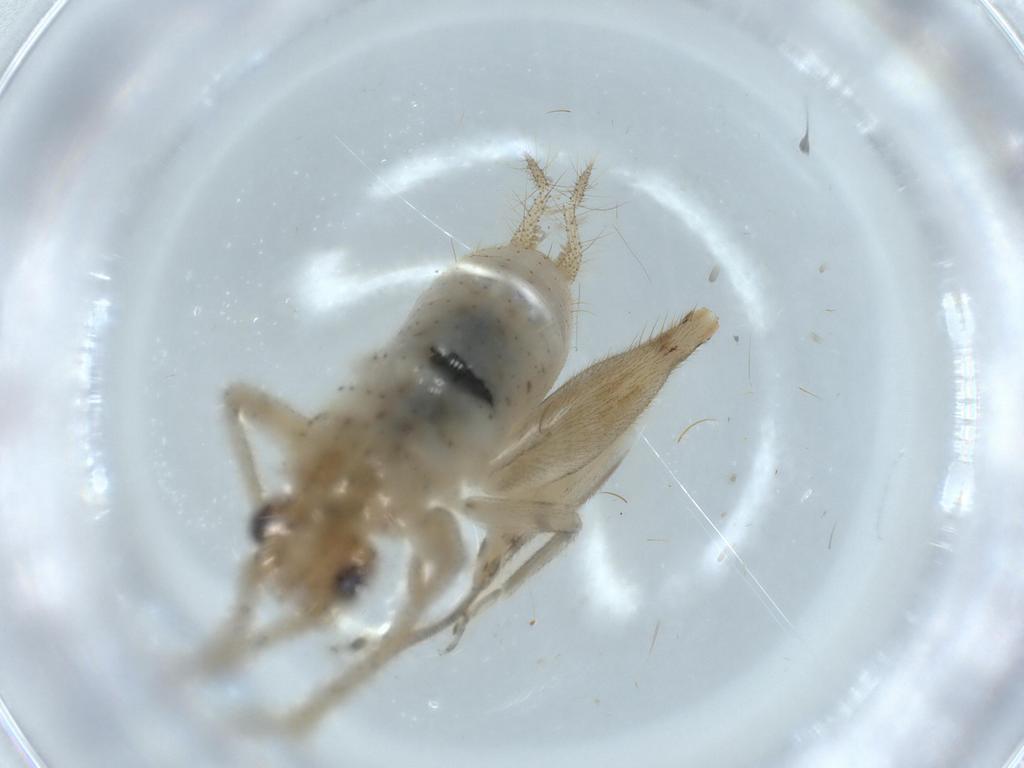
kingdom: Animalia
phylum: Arthropoda
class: Insecta
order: Orthoptera
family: Trigonidiidae
